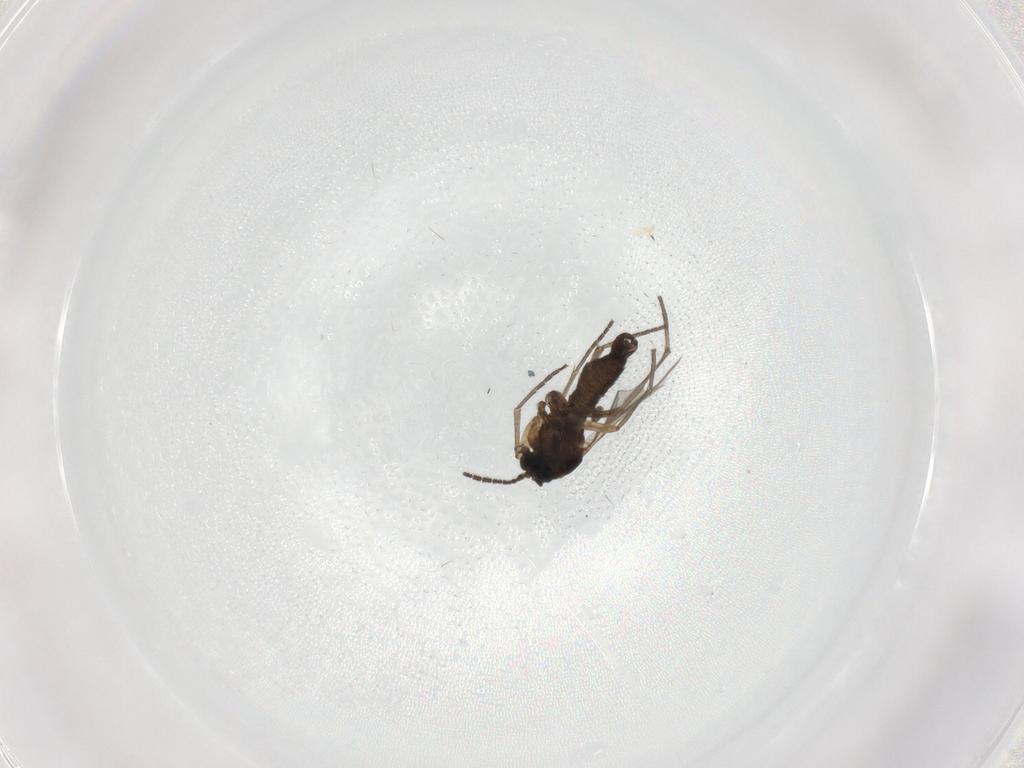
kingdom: Animalia
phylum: Arthropoda
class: Insecta
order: Diptera
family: Sciaridae
